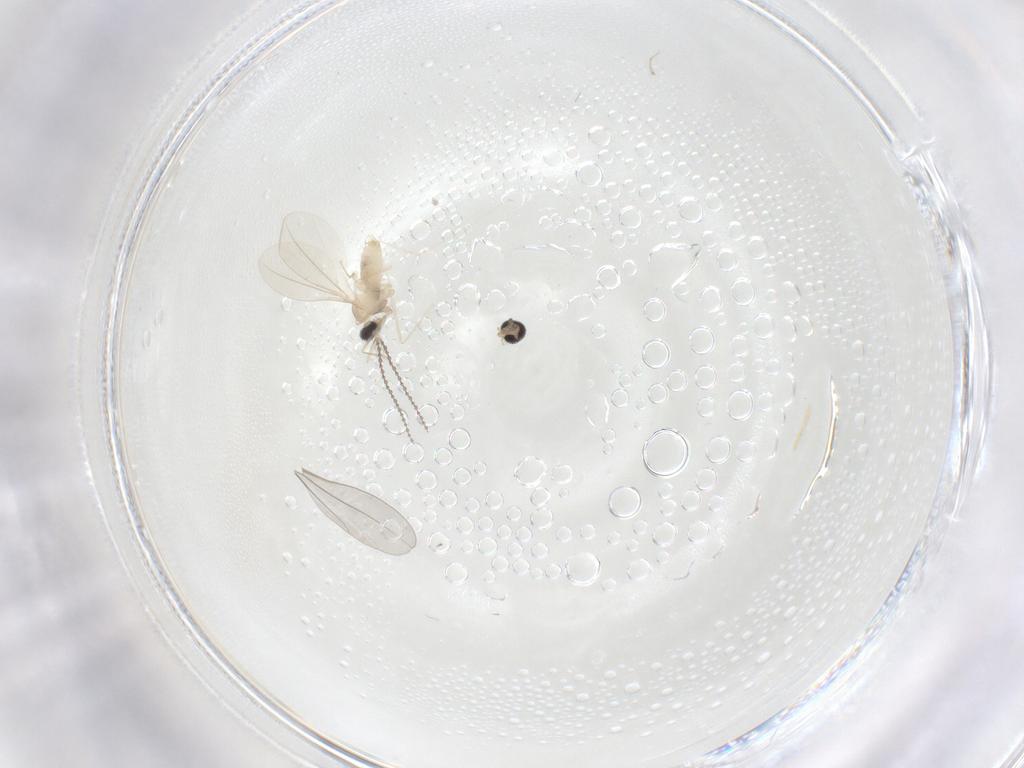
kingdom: Animalia
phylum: Arthropoda
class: Insecta
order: Diptera
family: Cecidomyiidae
